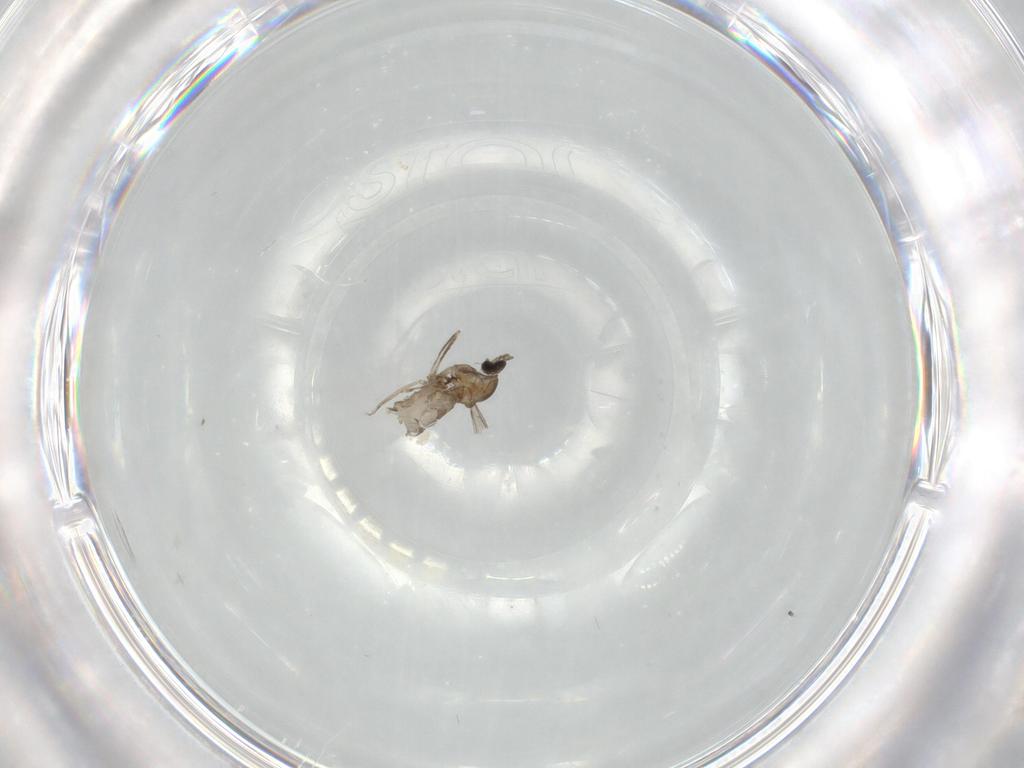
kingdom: Animalia
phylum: Arthropoda
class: Insecta
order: Diptera
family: Cecidomyiidae
